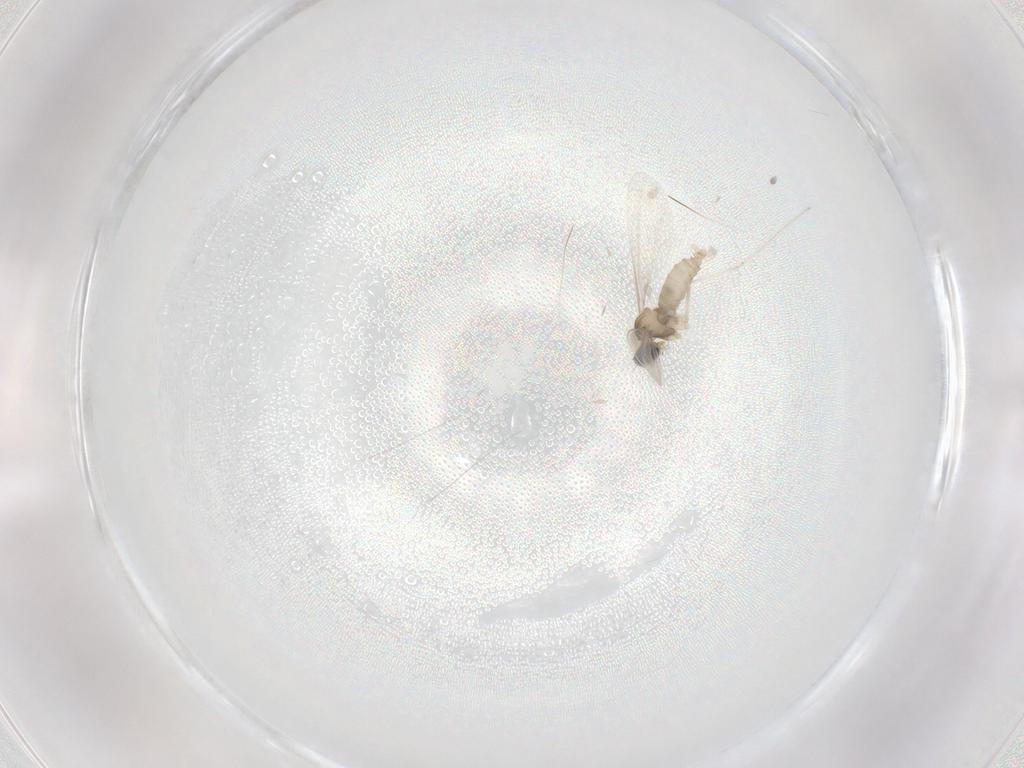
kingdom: Animalia
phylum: Arthropoda
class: Insecta
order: Diptera
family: Cecidomyiidae
